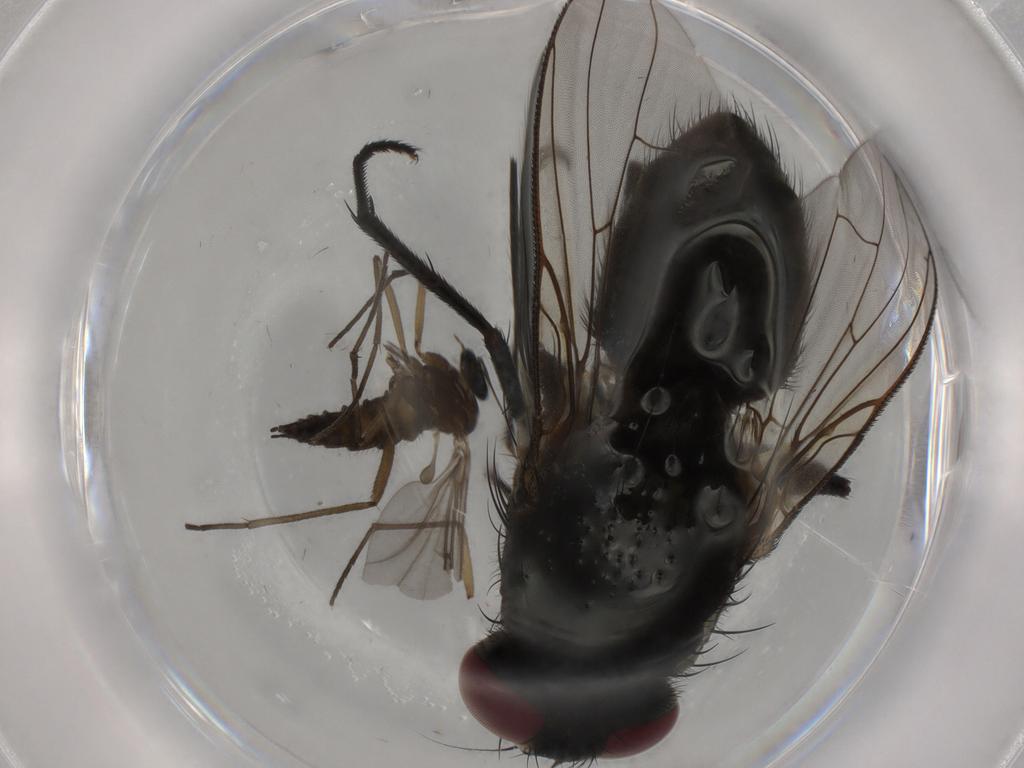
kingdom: Animalia
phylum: Arthropoda
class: Insecta
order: Diptera
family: Muscidae
